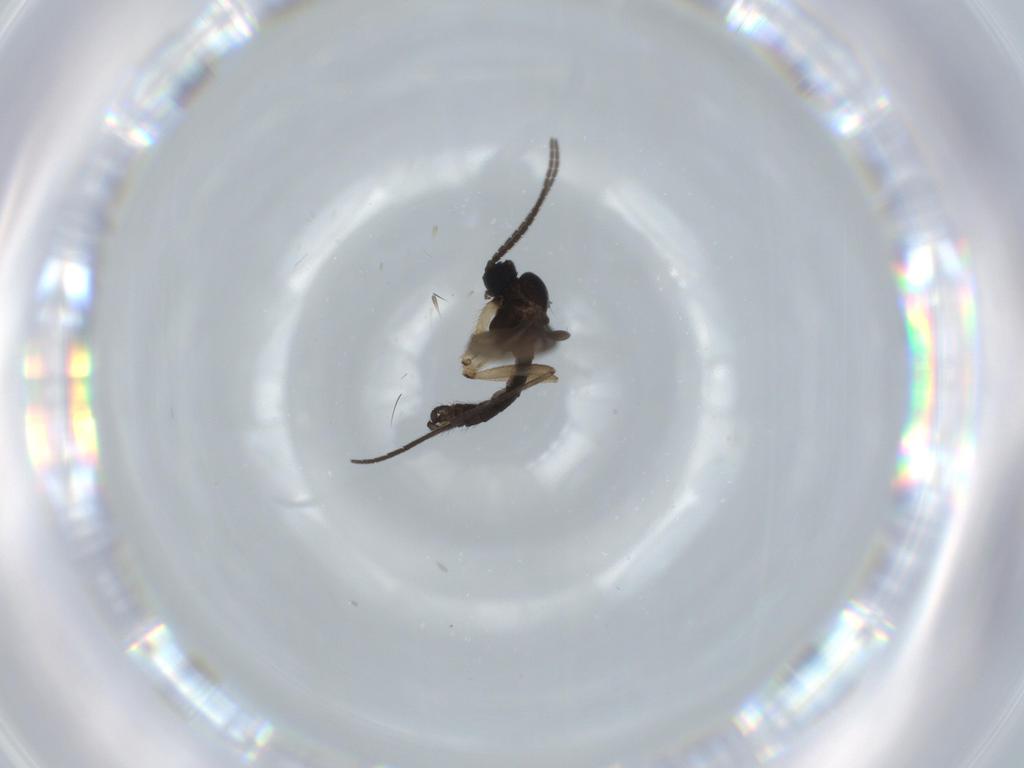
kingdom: Animalia
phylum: Arthropoda
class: Insecta
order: Diptera
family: Sciaridae
